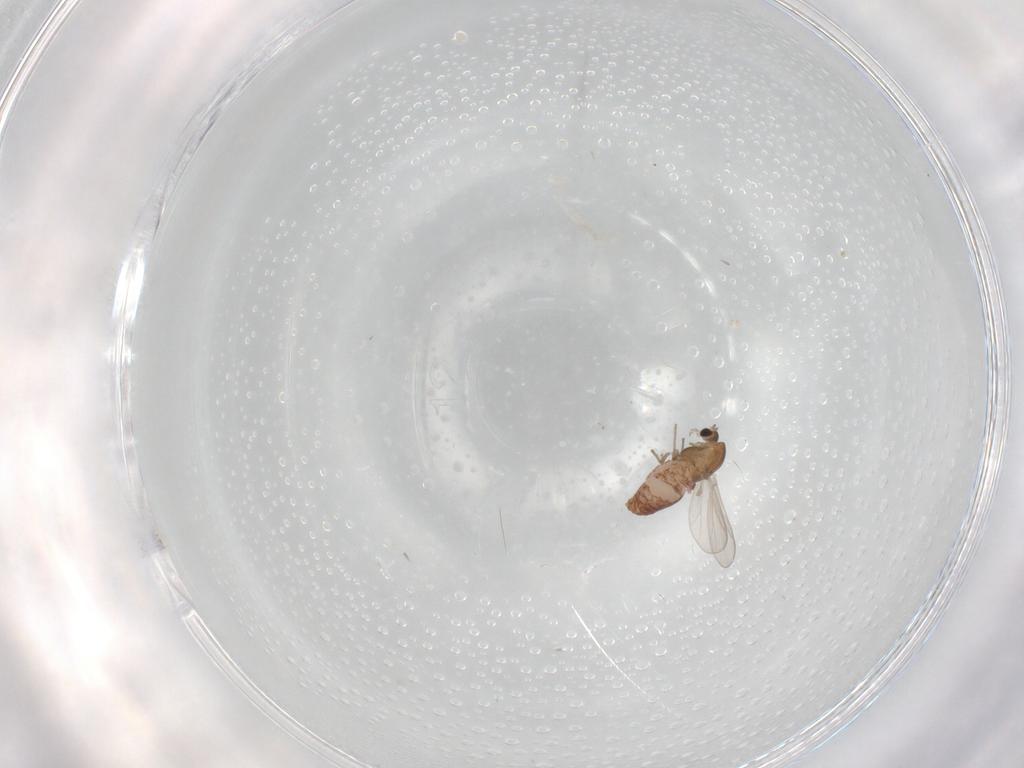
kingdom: Animalia
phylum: Arthropoda
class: Insecta
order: Diptera
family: Chironomidae
